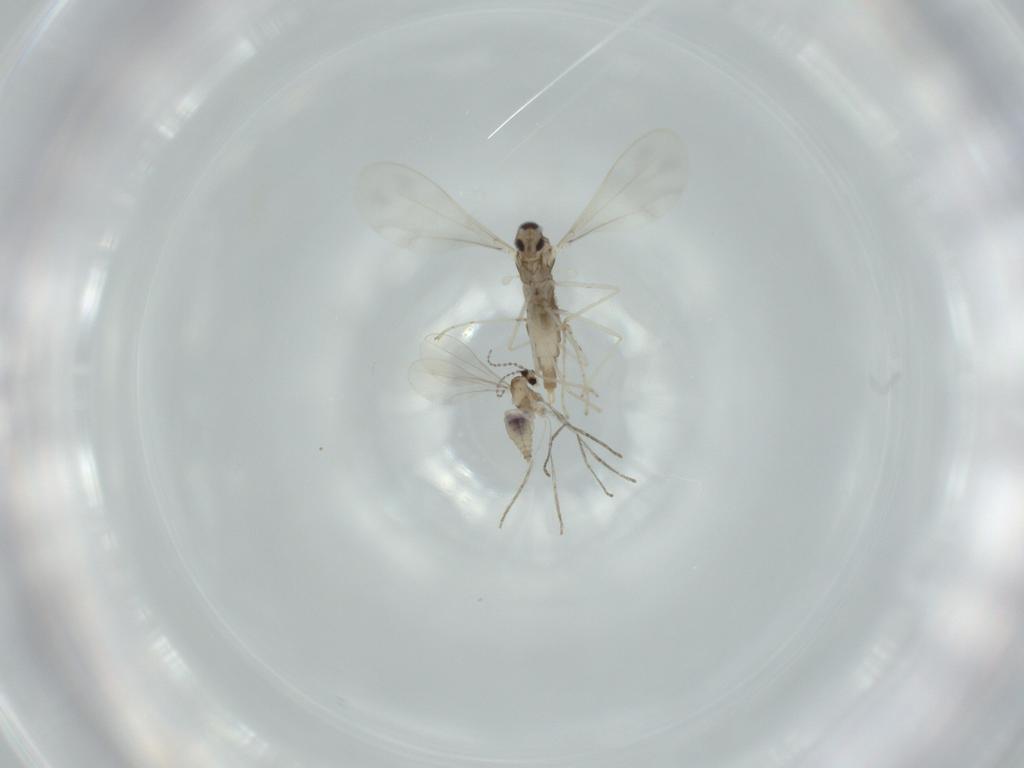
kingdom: Animalia
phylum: Arthropoda
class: Insecta
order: Diptera
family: Cecidomyiidae
